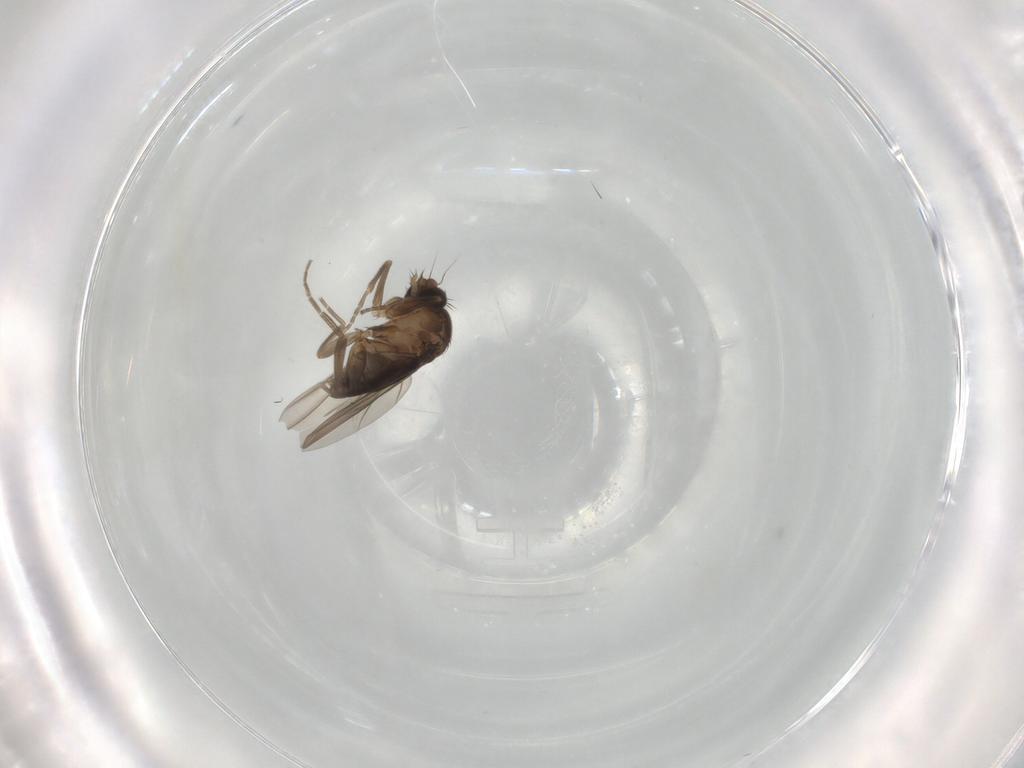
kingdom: Animalia
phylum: Arthropoda
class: Insecta
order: Diptera
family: Phoridae
